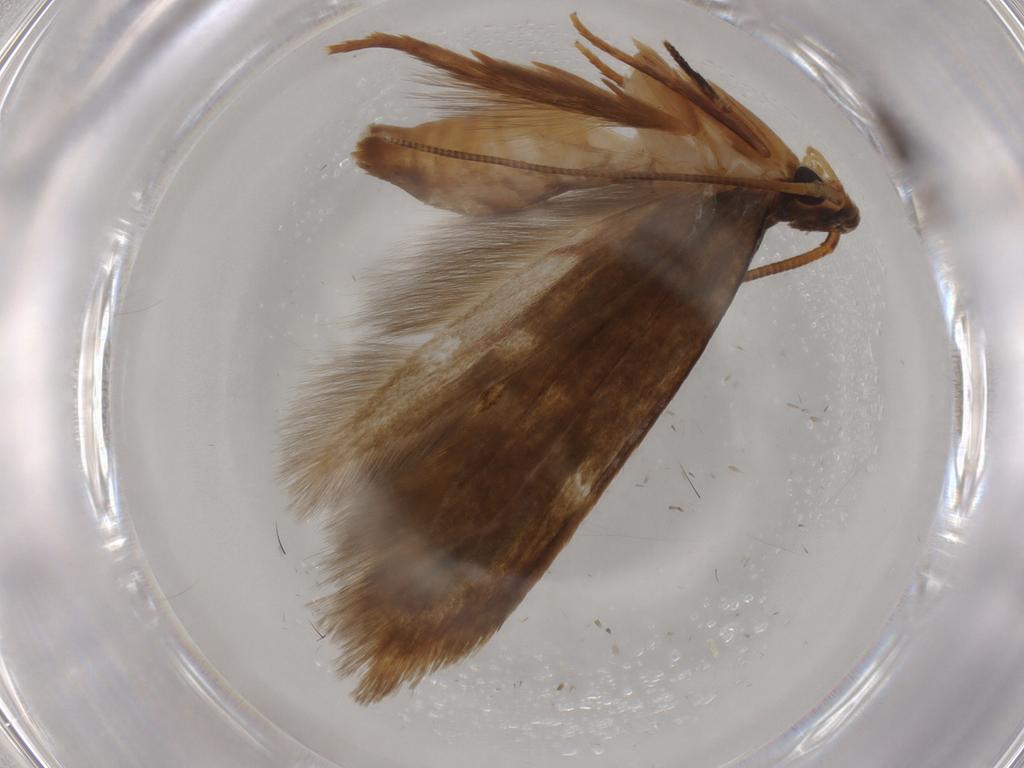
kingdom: Animalia
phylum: Arthropoda
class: Insecta
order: Lepidoptera
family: Tineidae
